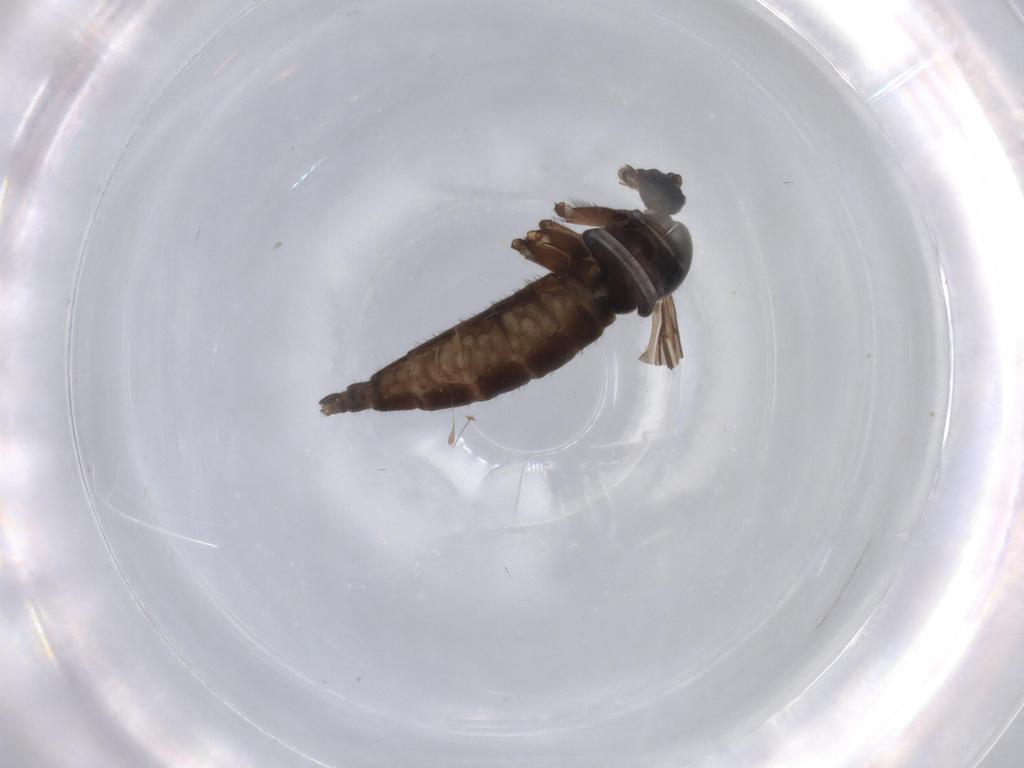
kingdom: Animalia
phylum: Arthropoda
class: Insecta
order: Diptera
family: Sciaridae
